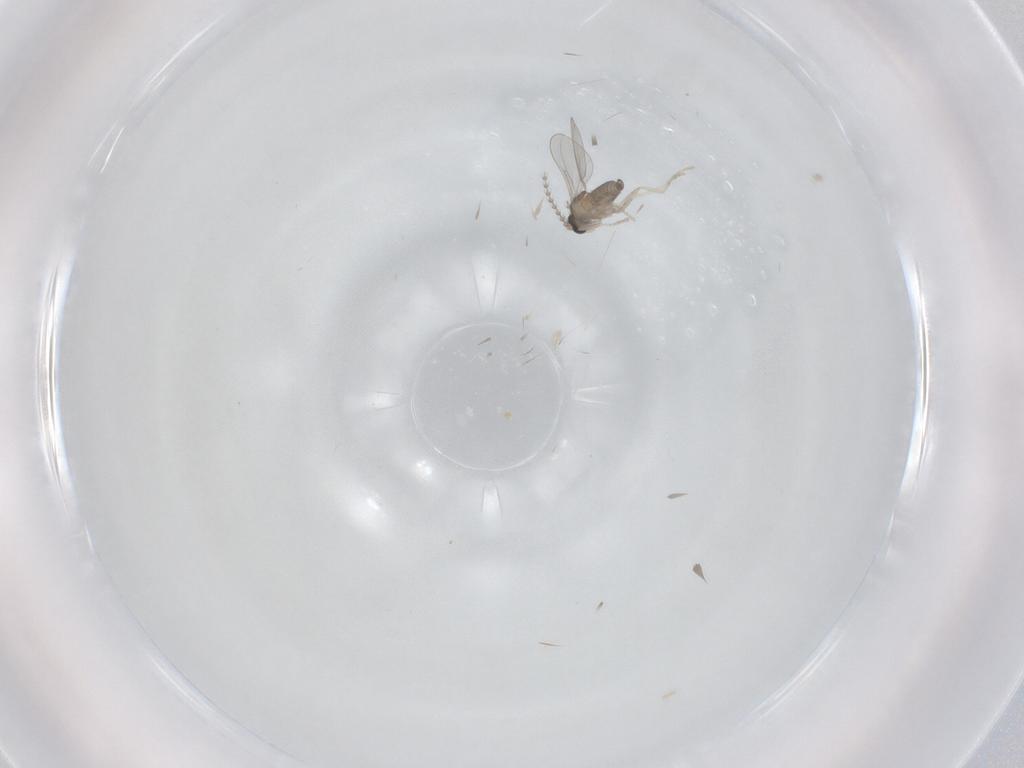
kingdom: Animalia
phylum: Arthropoda
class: Insecta
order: Diptera
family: Cecidomyiidae
